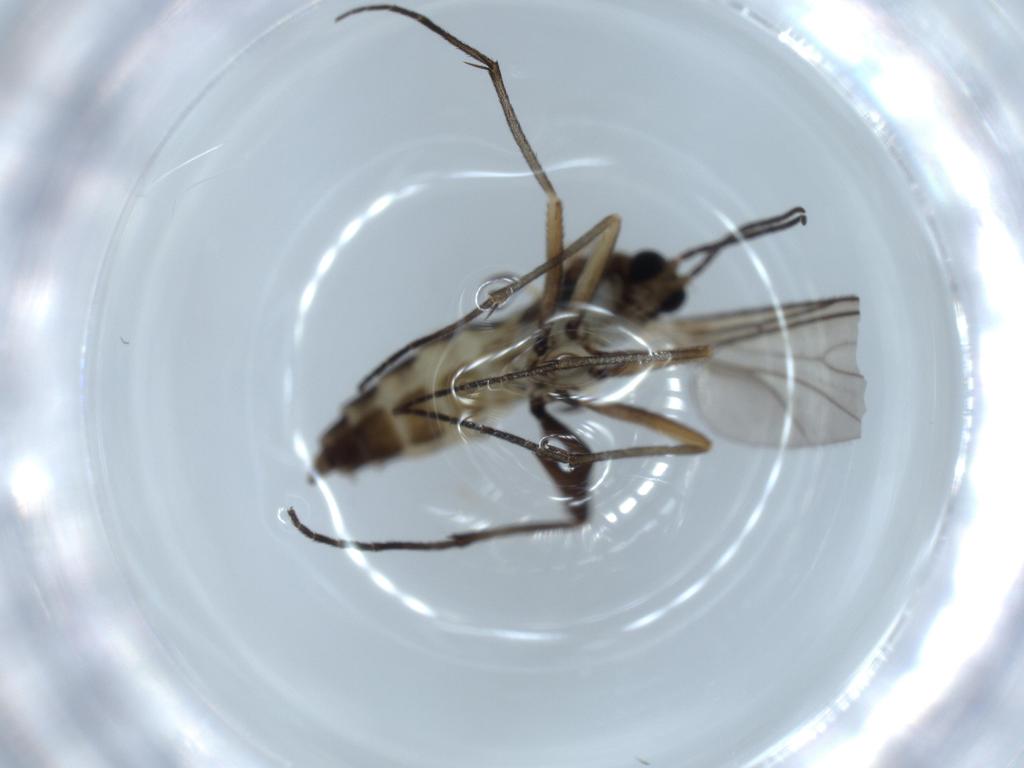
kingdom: Animalia
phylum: Arthropoda
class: Insecta
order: Diptera
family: Sciaridae
